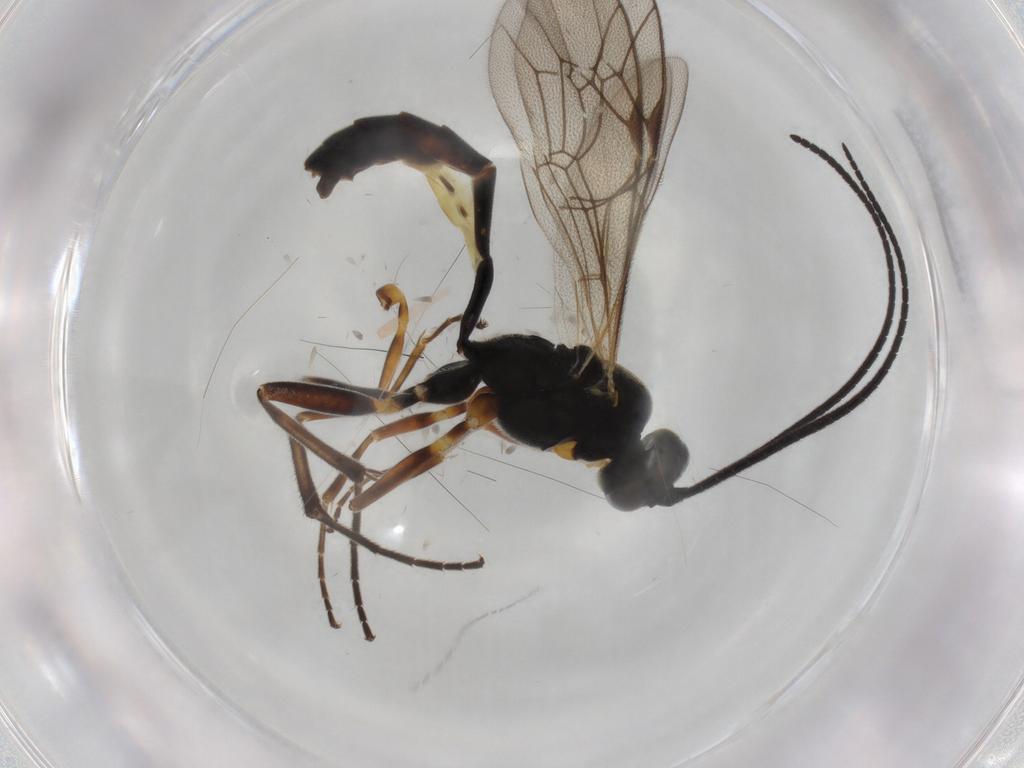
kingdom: Animalia
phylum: Arthropoda
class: Insecta
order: Hymenoptera
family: Ichneumonidae
